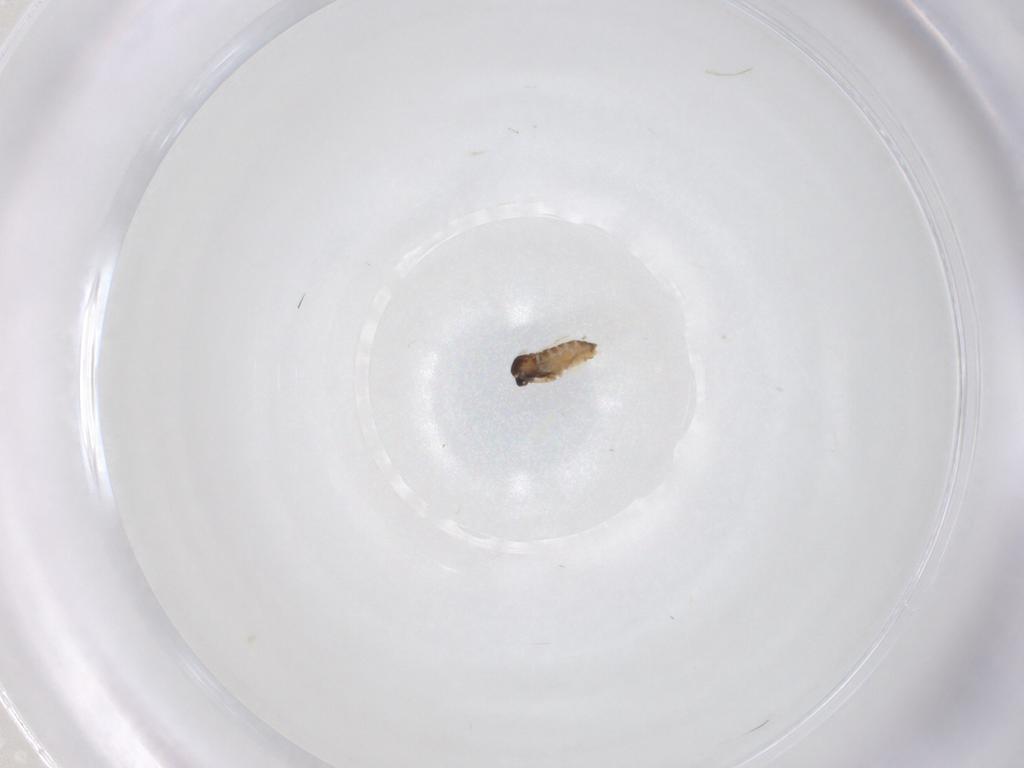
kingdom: Animalia
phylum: Arthropoda
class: Insecta
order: Diptera
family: Cecidomyiidae
